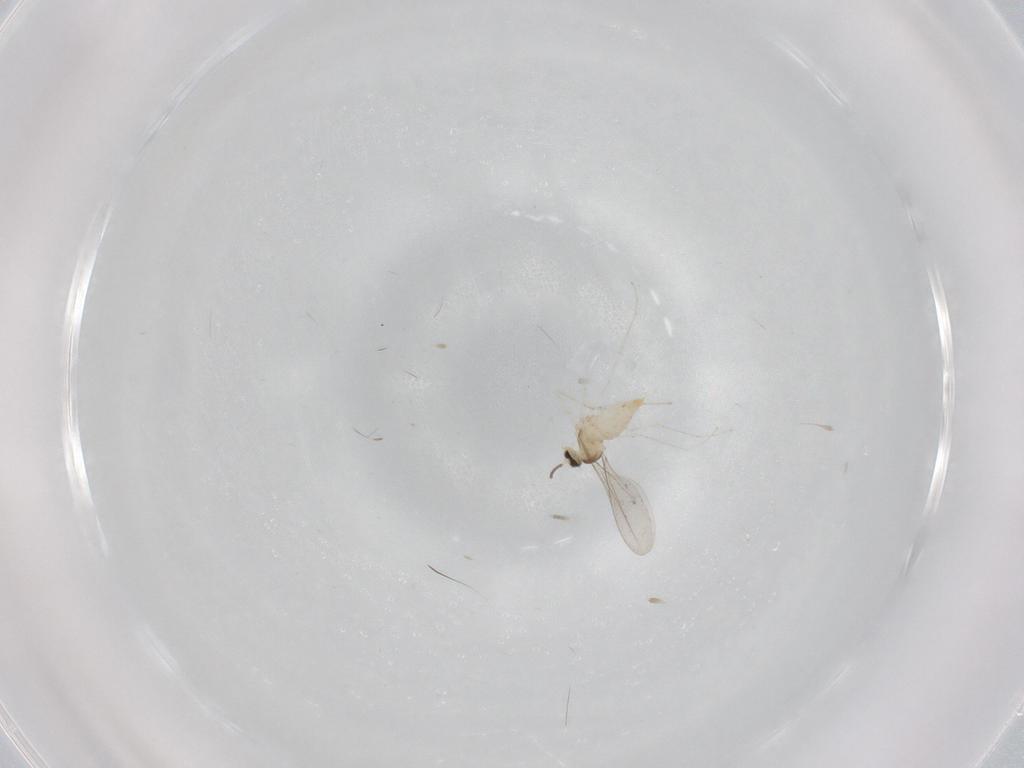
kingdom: Animalia
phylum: Arthropoda
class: Insecta
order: Diptera
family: Cecidomyiidae
